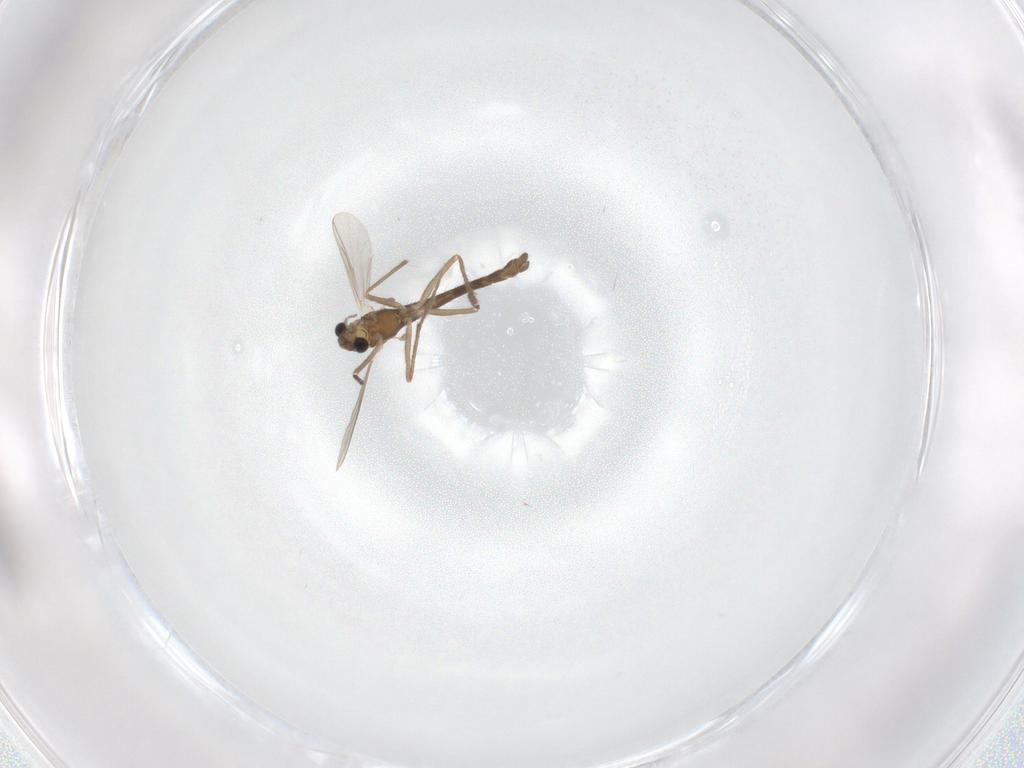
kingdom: Animalia
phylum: Arthropoda
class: Insecta
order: Diptera
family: Chironomidae
